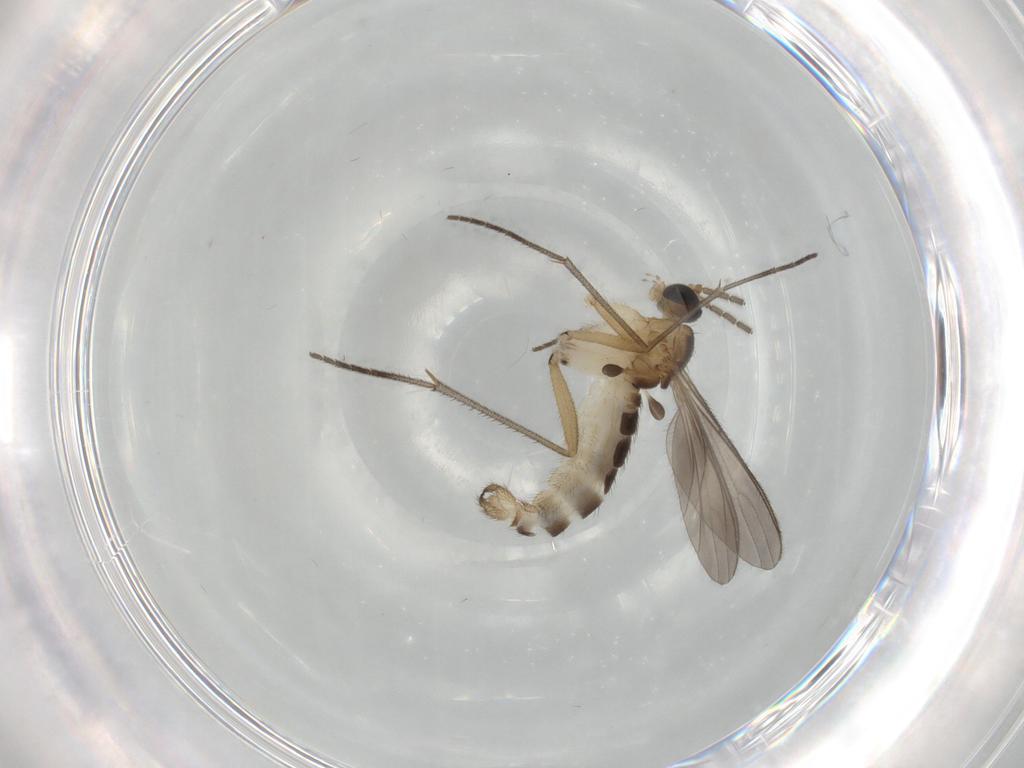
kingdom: Animalia
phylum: Arthropoda
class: Insecta
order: Diptera
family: Sciaridae
